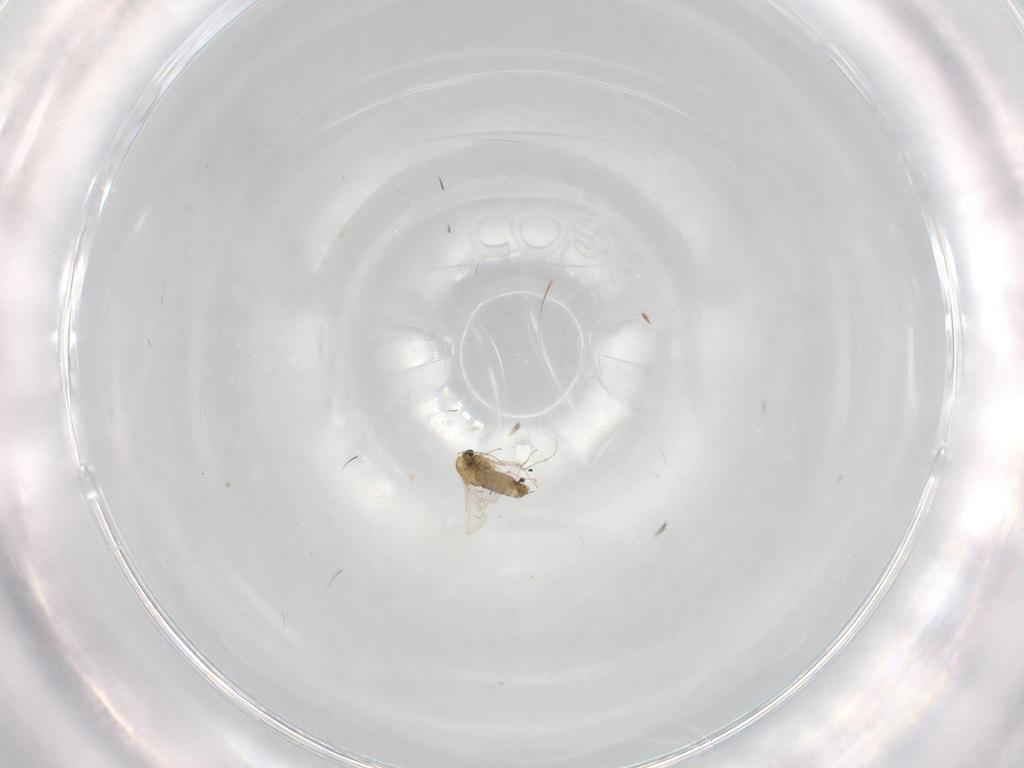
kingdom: Animalia
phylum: Arthropoda
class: Insecta
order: Diptera
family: Chironomidae
